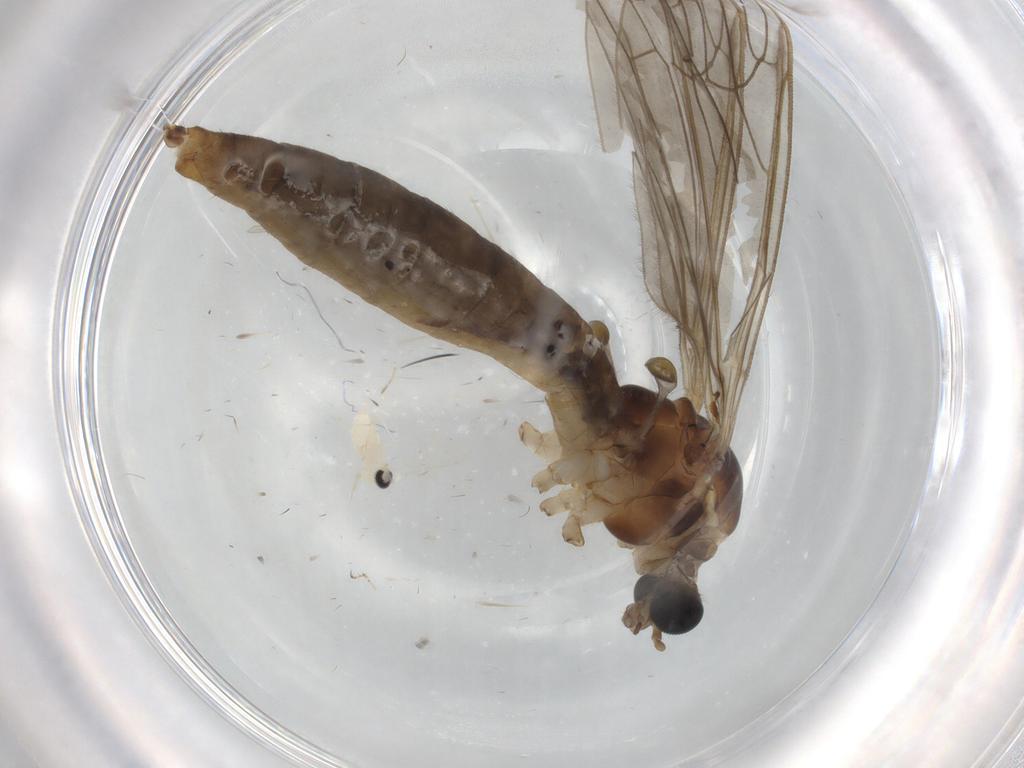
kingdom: Animalia
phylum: Arthropoda
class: Insecta
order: Diptera
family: Limoniidae
